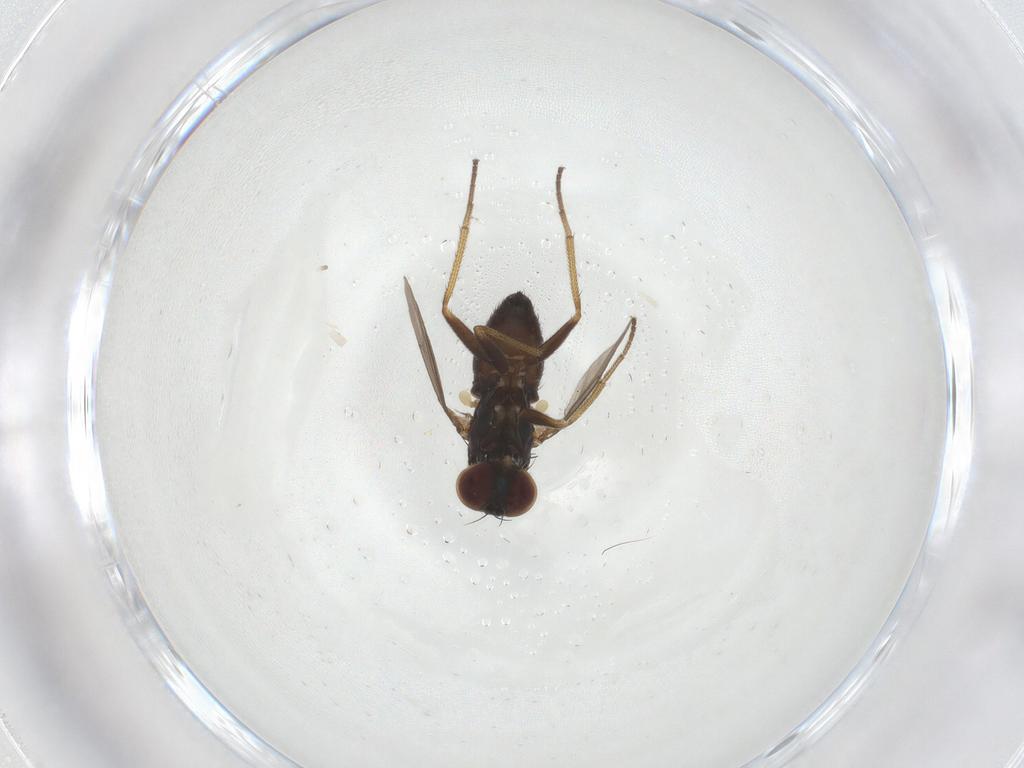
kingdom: Animalia
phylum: Arthropoda
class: Insecta
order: Diptera
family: Dolichopodidae
